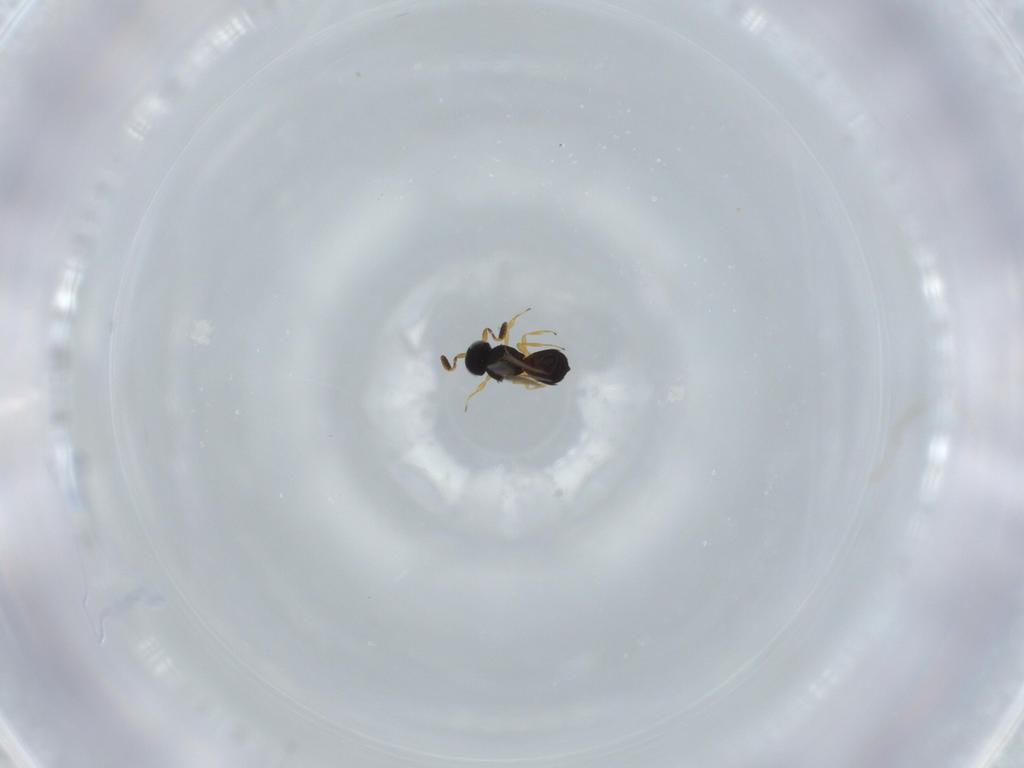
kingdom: Animalia
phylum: Arthropoda
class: Insecta
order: Hymenoptera
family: Scelionidae
